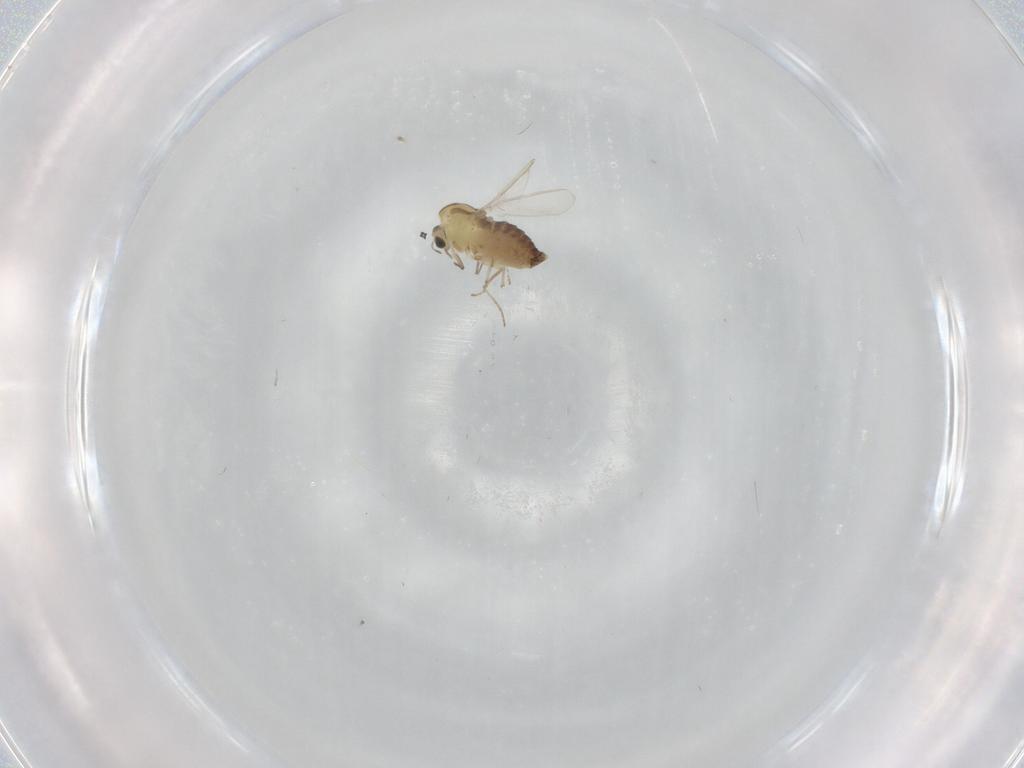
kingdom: Animalia
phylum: Arthropoda
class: Insecta
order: Diptera
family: Chironomidae
